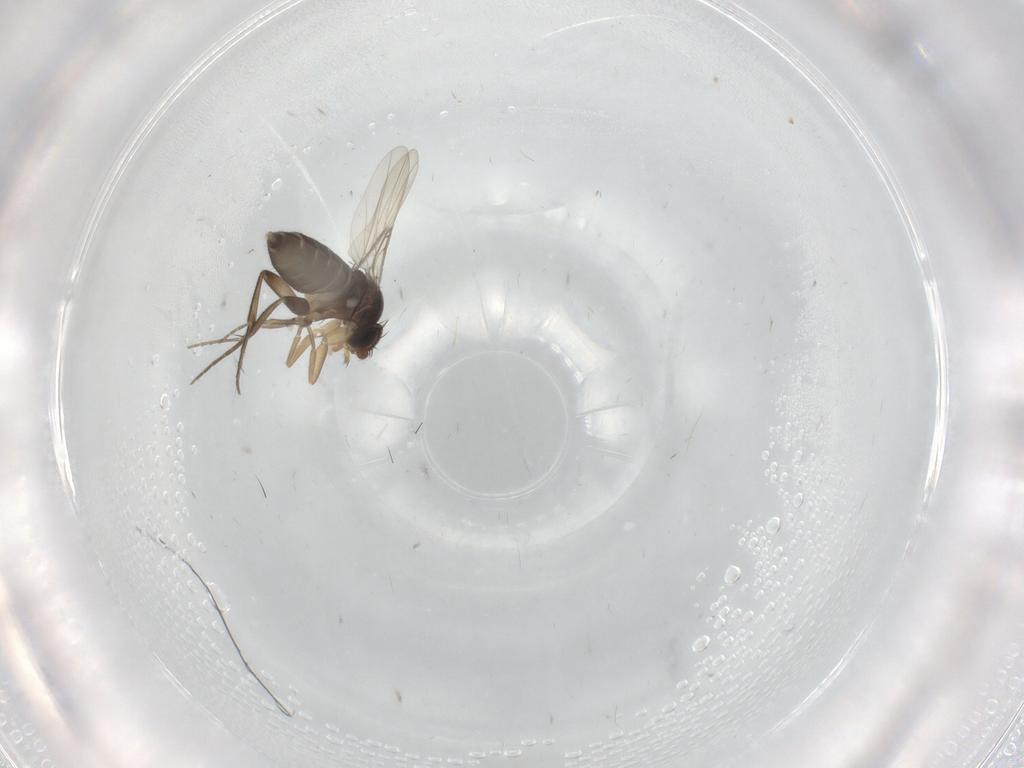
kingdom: Animalia
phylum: Arthropoda
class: Insecta
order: Diptera
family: Phoridae
